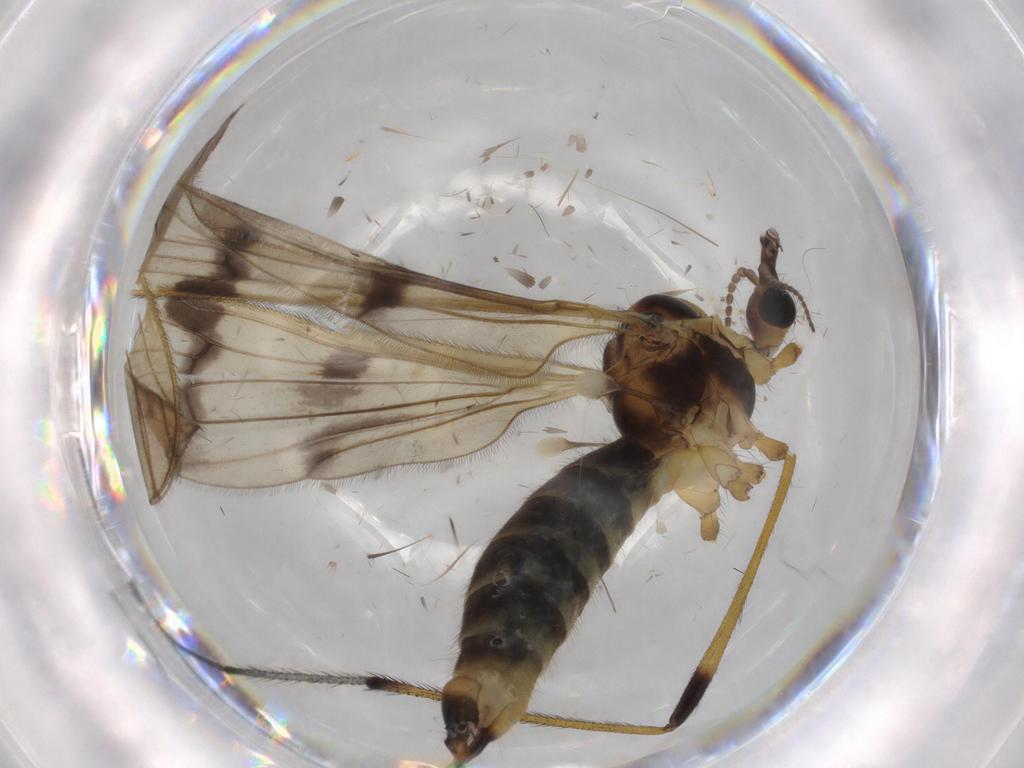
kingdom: Animalia
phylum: Arthropoda
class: Insecta
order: Diptera
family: Limoniidae
